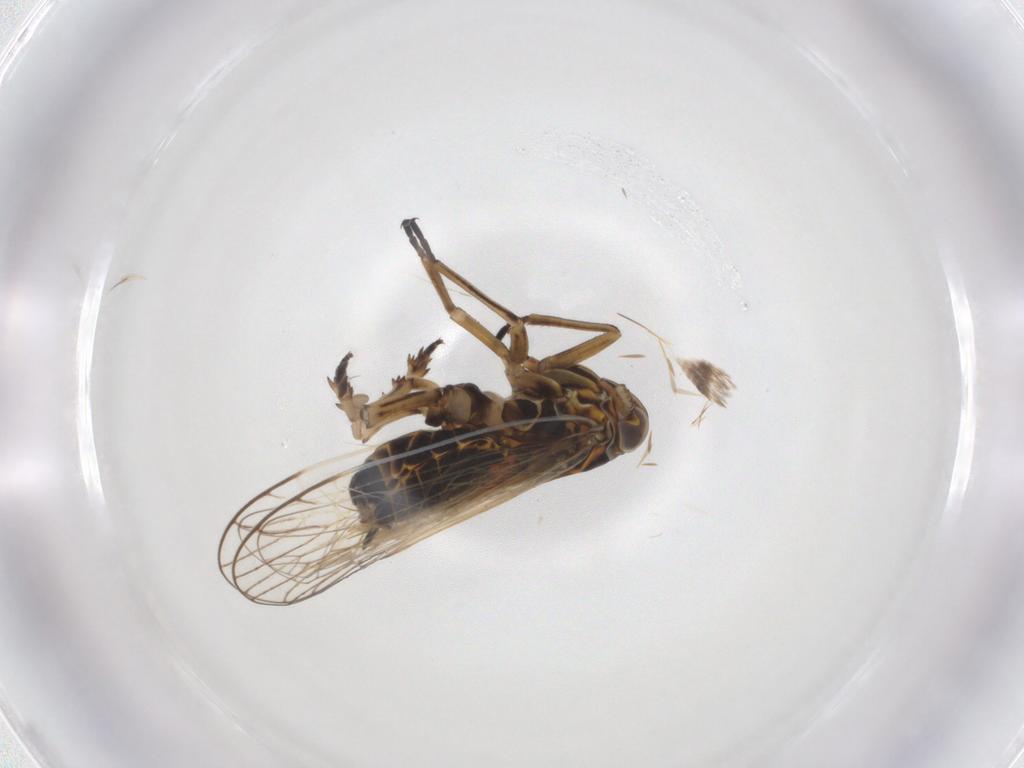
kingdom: Animalia
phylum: Arthropoda
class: Insecta
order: Hemiptera
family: Delphacidae
